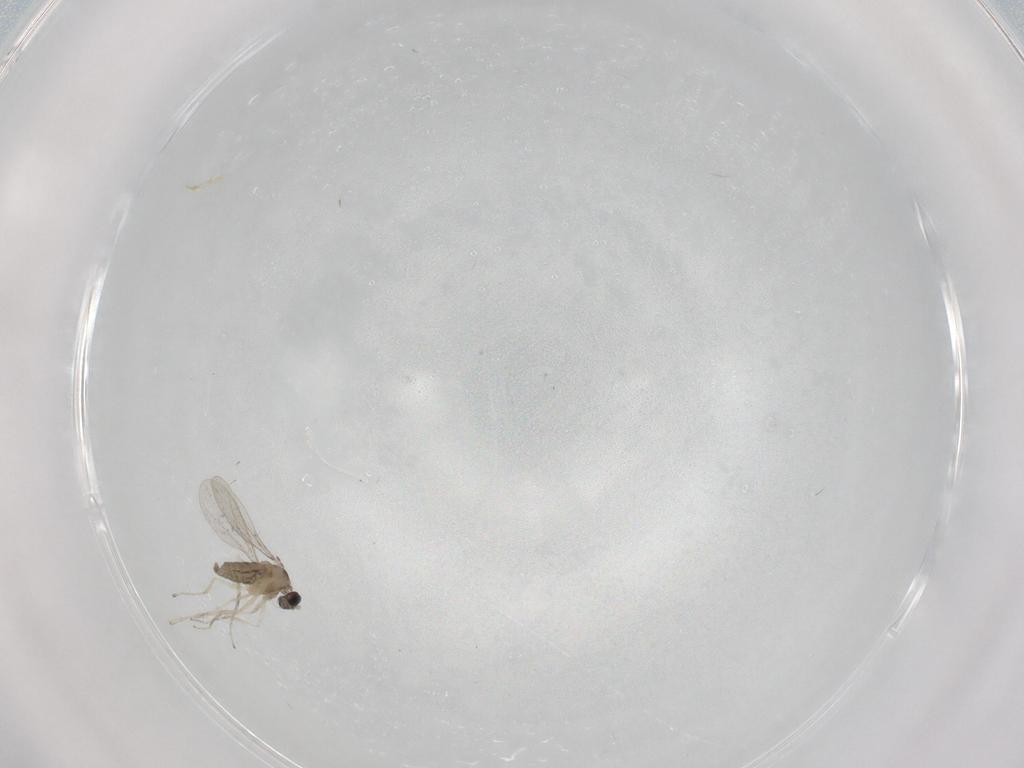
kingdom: Animalia
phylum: Arthropoda
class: Insecta
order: Diptera
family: Cecidomyiidae
